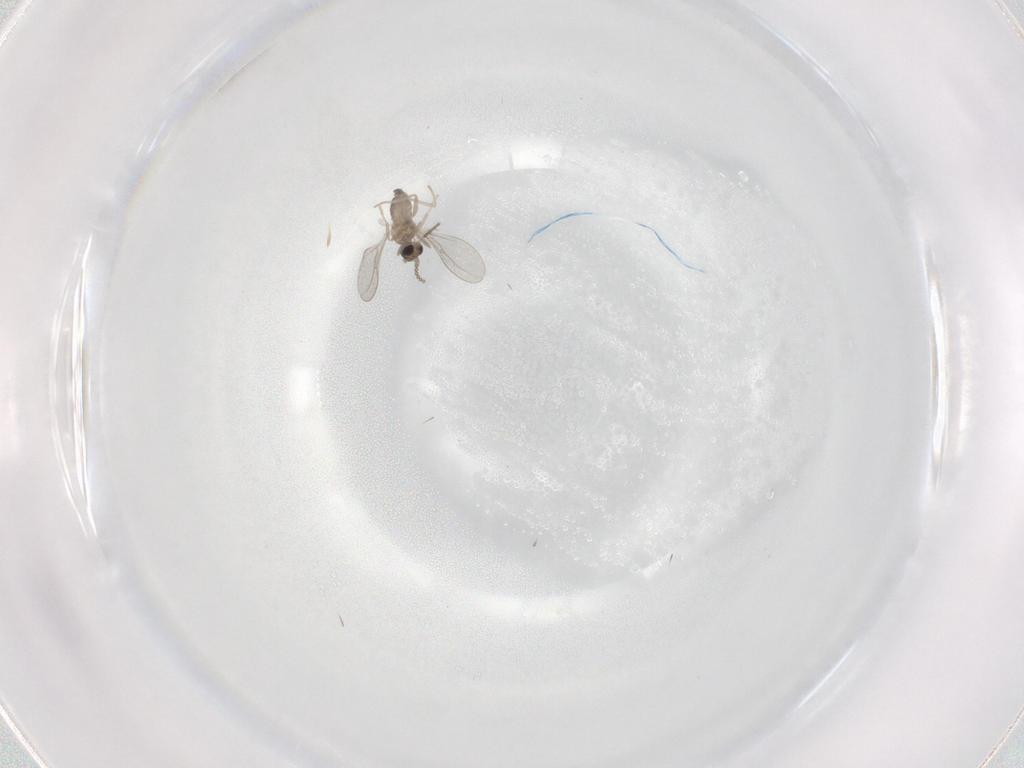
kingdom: Animalia
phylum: Arthropoda
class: Insecta
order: Diptera
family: Cecidomyiidae
